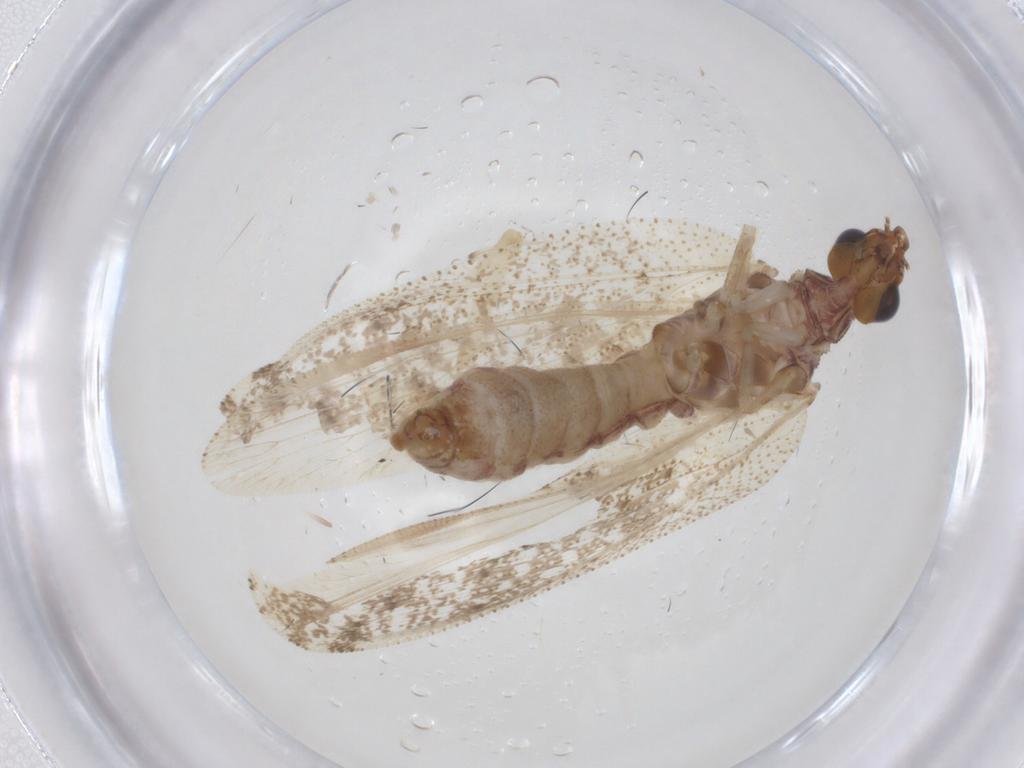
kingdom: Animalia
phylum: Arthropoda
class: Insecta
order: Neuroptera
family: Hemerobiidae
